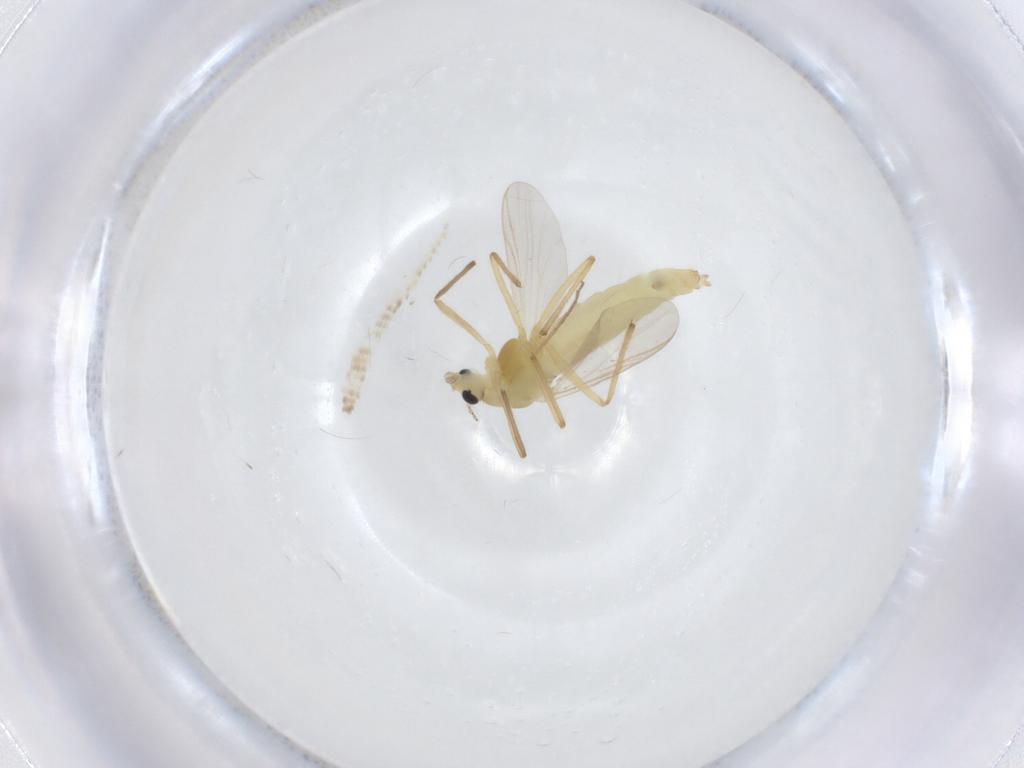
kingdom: Animalia
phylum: Arthropoda
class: Insecta
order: Diptera
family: Chironomidae
